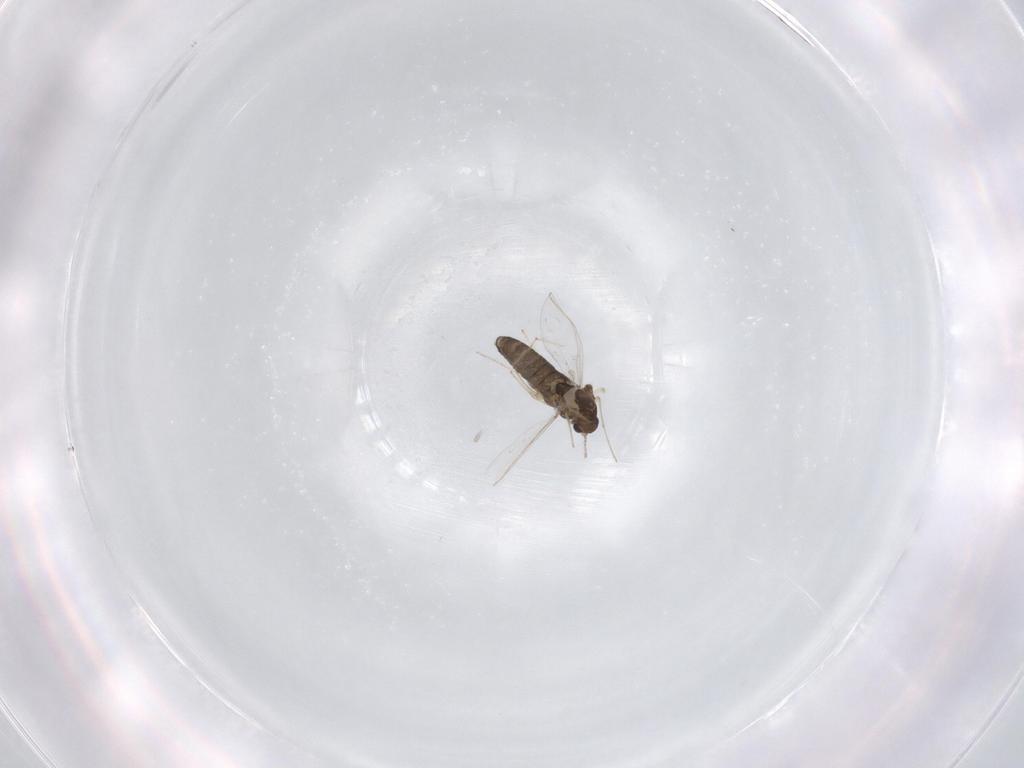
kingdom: Animalia
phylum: Arthropoda
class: Insecta
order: Diptera
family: Chironomidae
